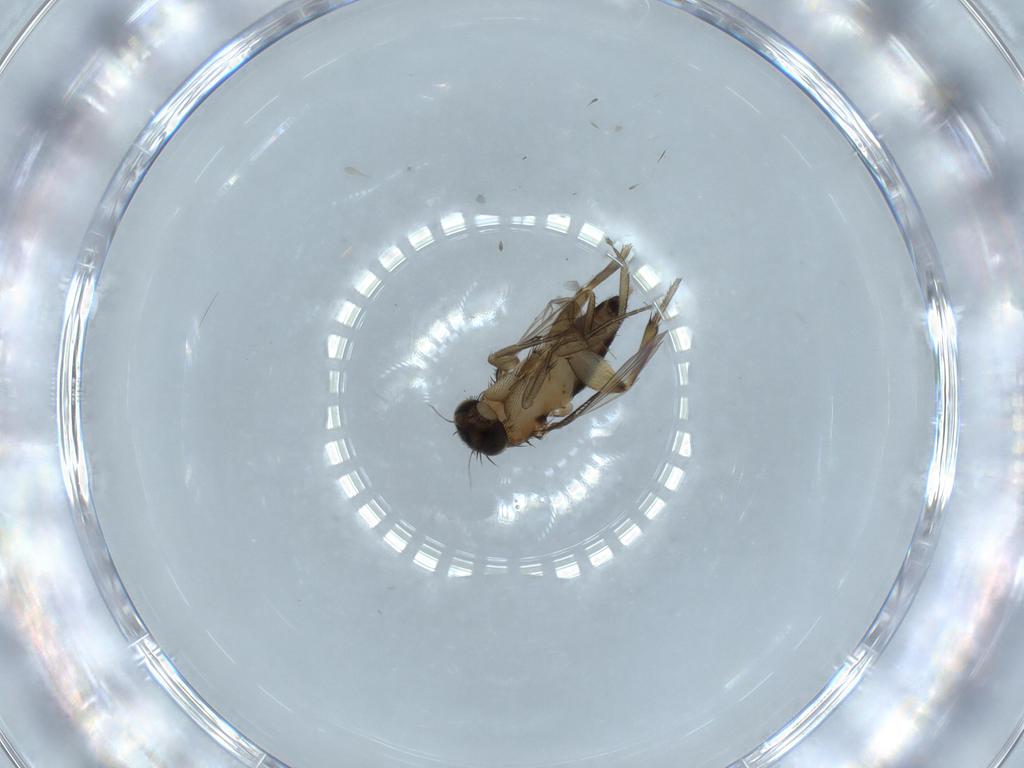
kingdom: Animalia
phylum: Arthropoda
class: Insecta
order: Diptera
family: Phoridae
